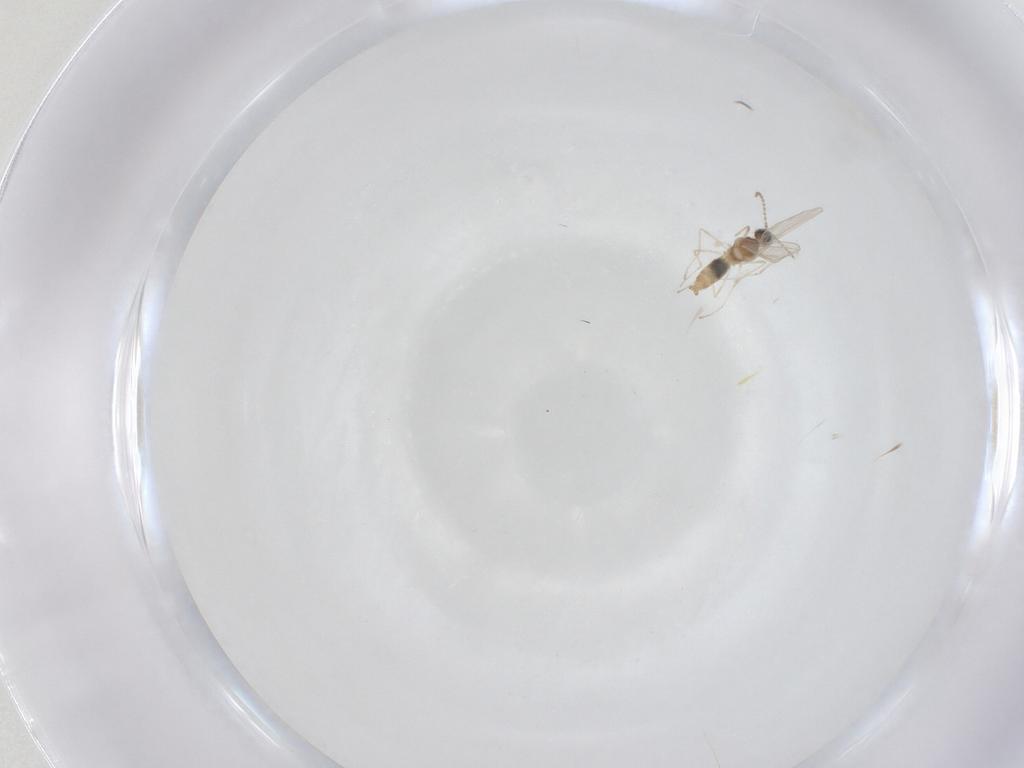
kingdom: Animalia
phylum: Arthropoda
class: Insecta
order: Diptera
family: Cecidomyiidae
